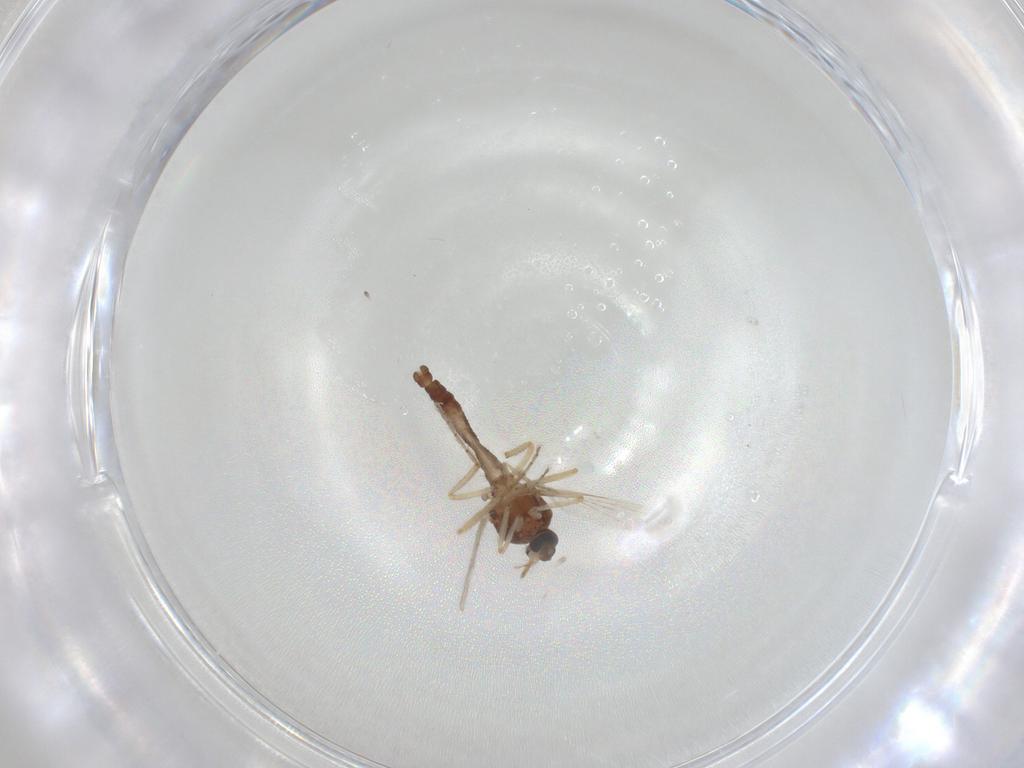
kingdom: Animalia
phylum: Arthropoda
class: Insecta
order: Diptera
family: Ceratopogonidae
